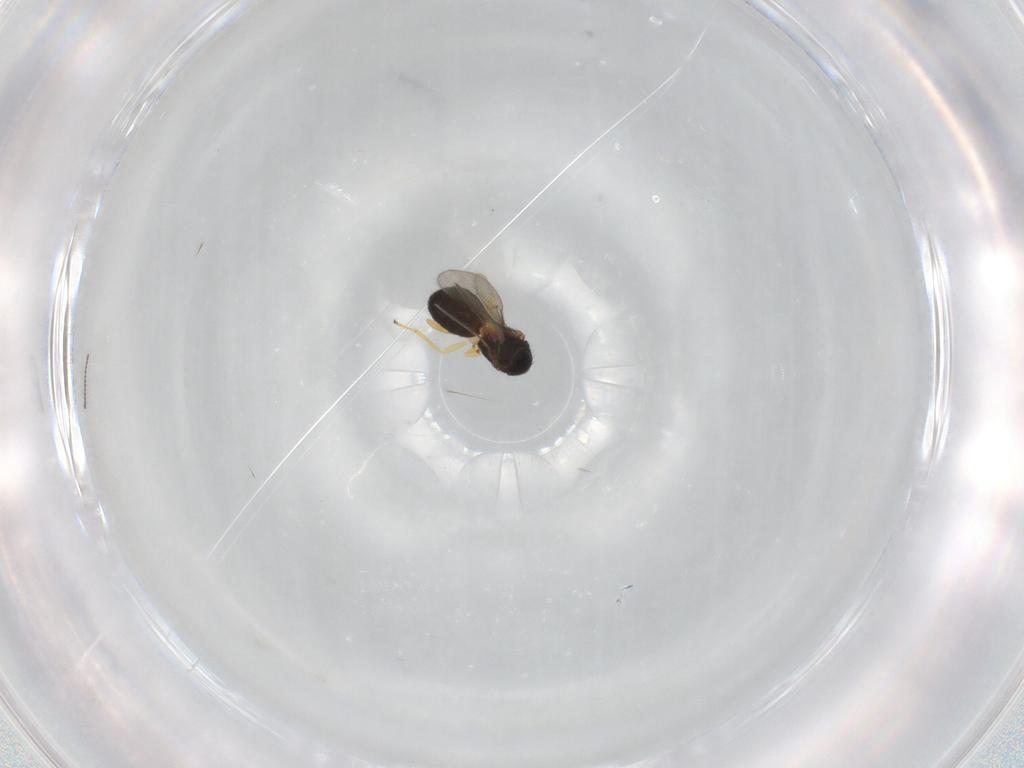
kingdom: Animalia
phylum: Arthropoda
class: Insecta
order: Hymenoptera
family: Eulophidae
